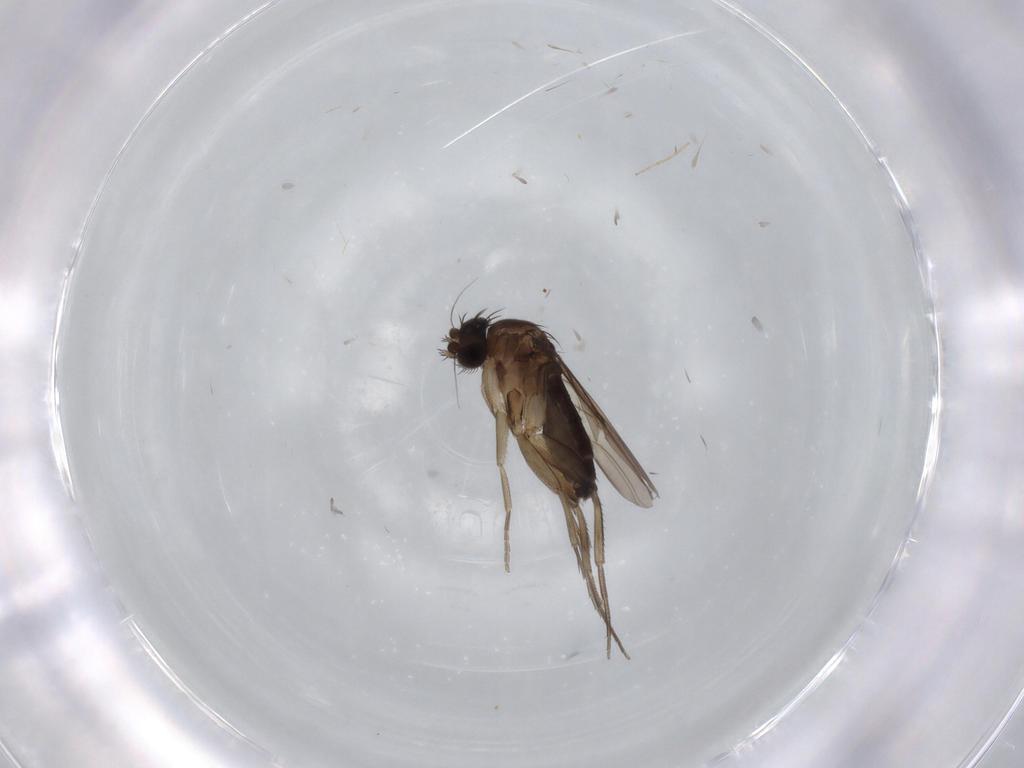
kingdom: Animalia
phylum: Arthropoda
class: Insecta
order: Diptera
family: Phoridae
